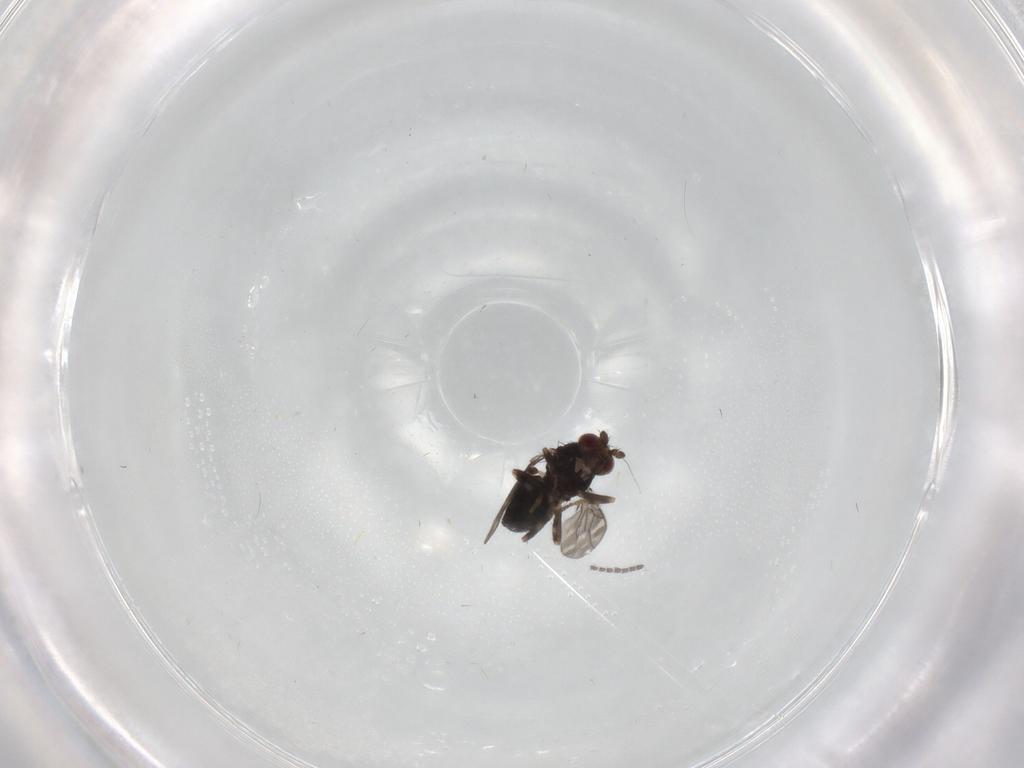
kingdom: Animalia
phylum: Arthropoda
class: Insecta
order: Diptera
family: Sphaeroceridae
